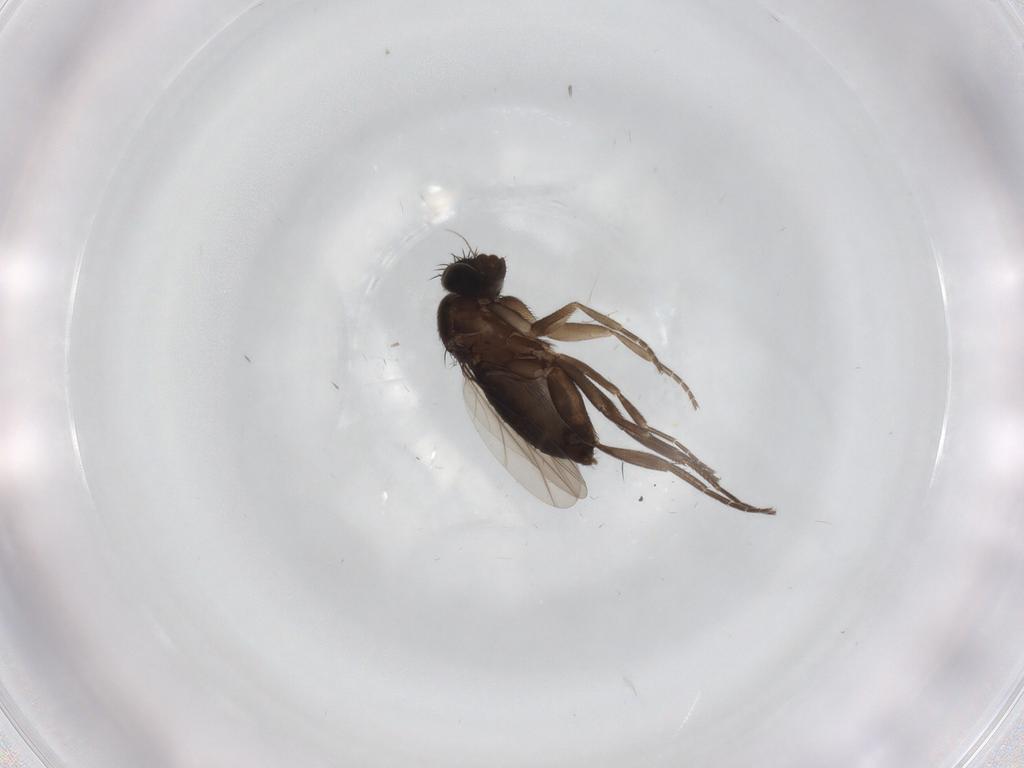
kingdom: Animalia
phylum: Arthropoda
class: Insecta
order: Diptera
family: Phoridae
